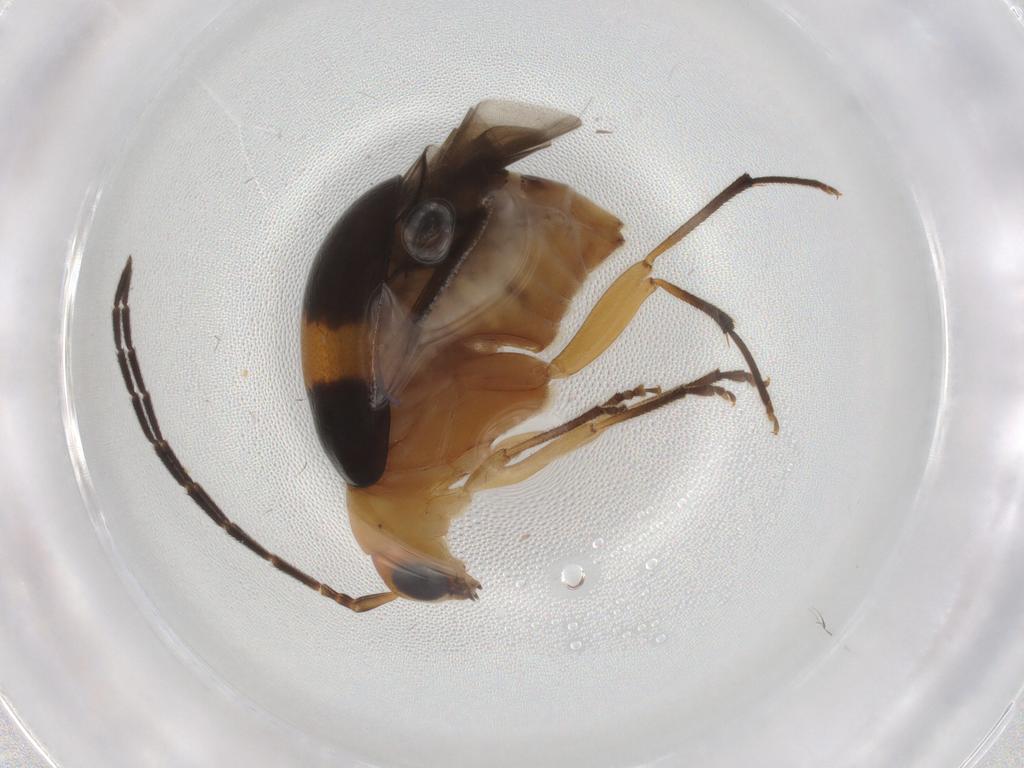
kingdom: Animalia
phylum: Arthropoda
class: Insecta
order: Coleoptera
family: Chrysomelidae
